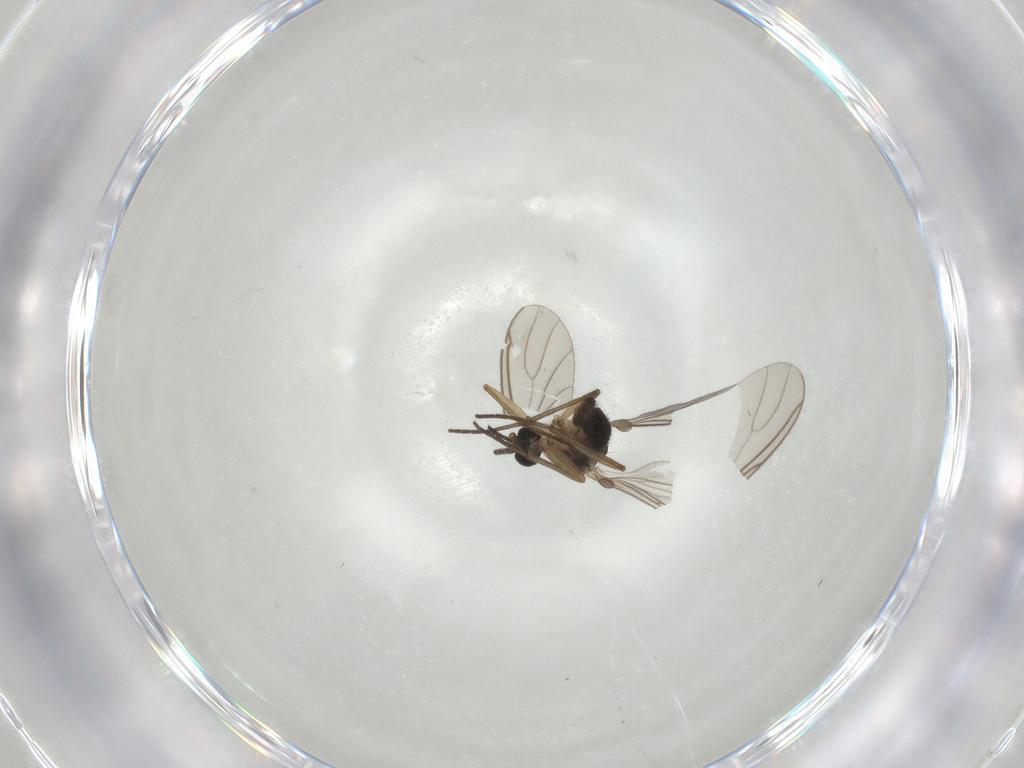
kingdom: Animalia
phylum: Arthropoda
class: Insecta
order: Diptera
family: Sciaridae
